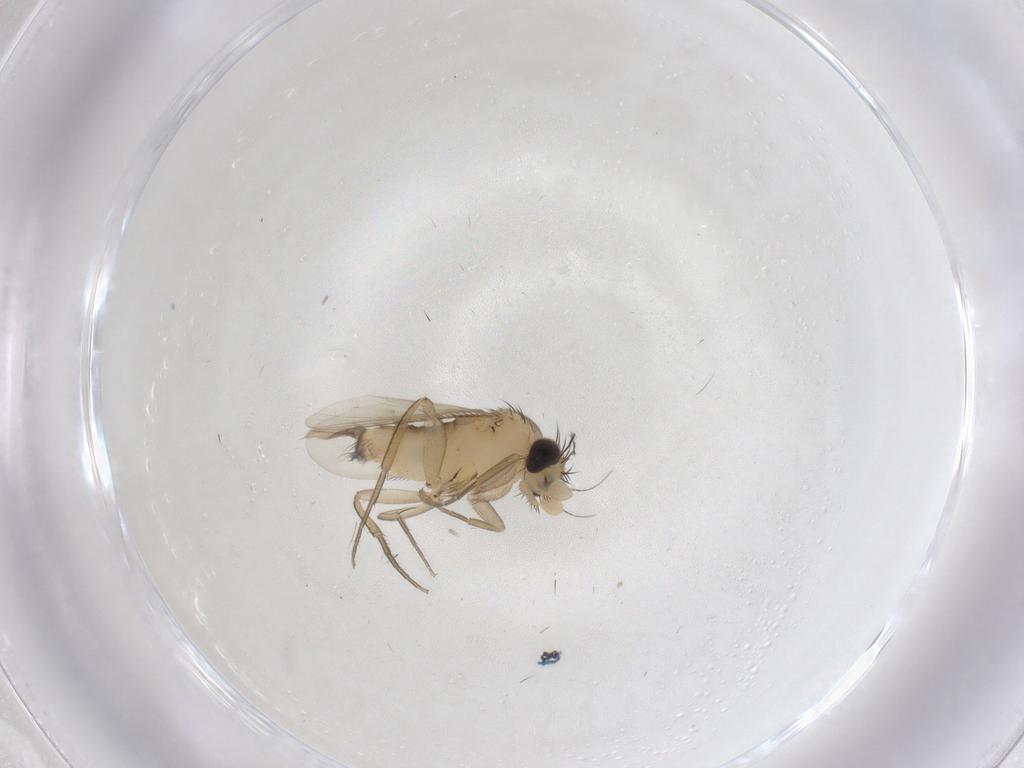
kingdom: Animalia
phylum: Arthropoda
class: Insecta
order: Diptera
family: Phoridae
